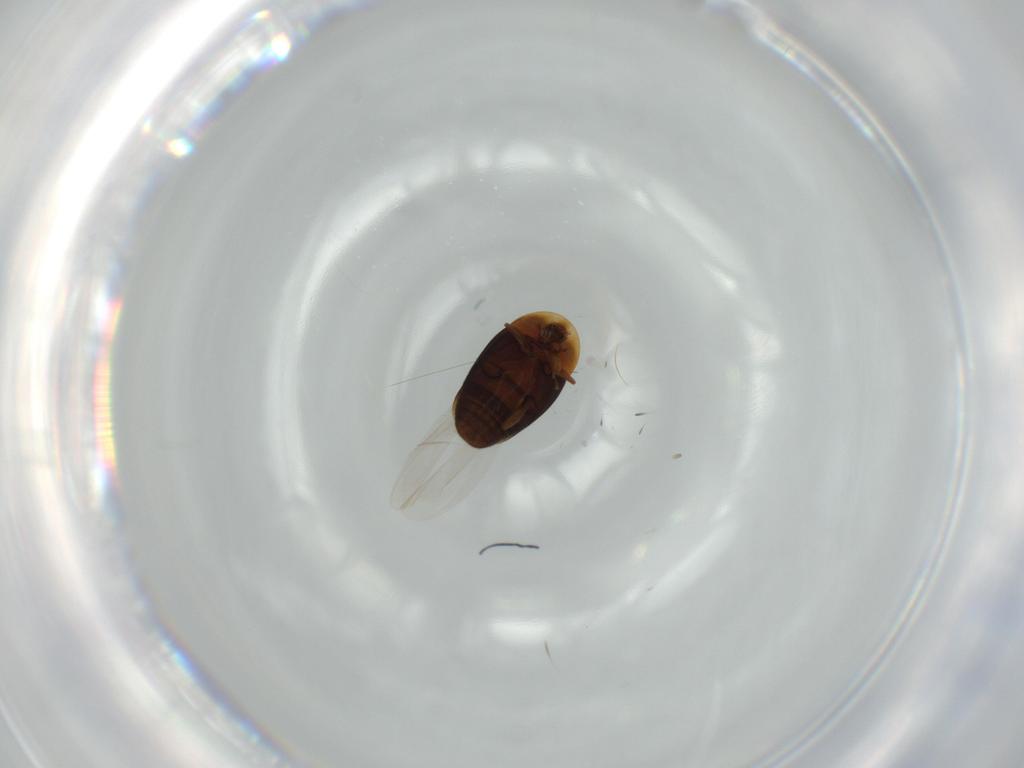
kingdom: Animalia
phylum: Arthropoda
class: Insecta
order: Coleoptera
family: Corylophidae
